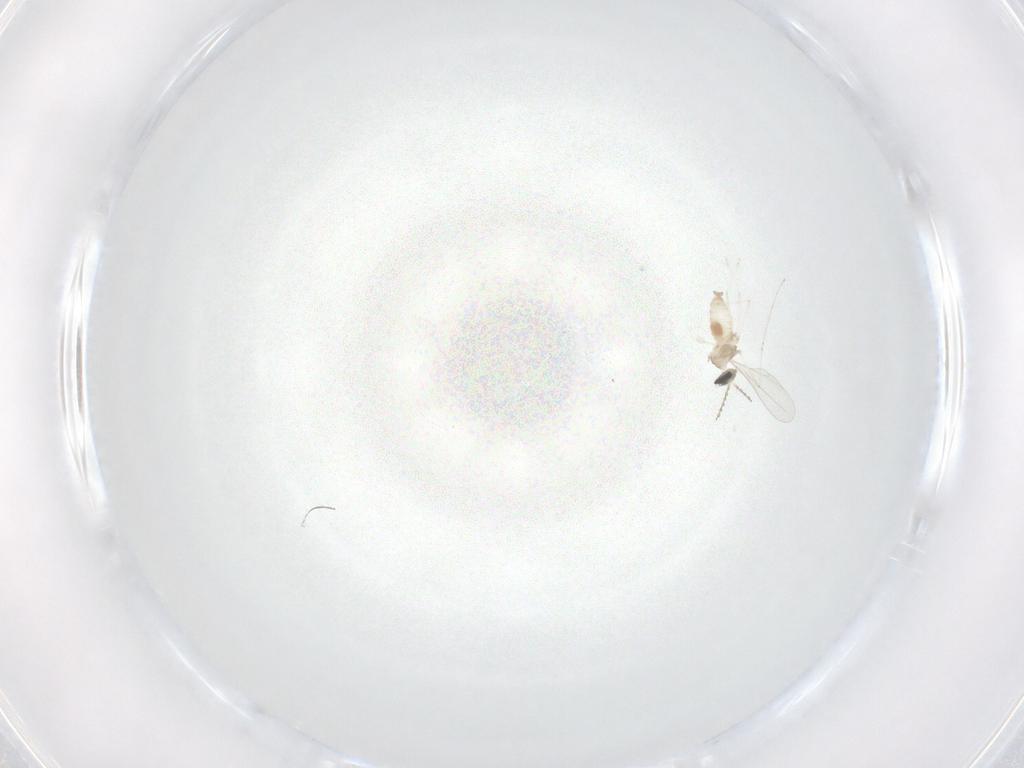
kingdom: Animalia
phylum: Arthropoda
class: Insecta
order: Diptera
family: Cecidomyiidae
